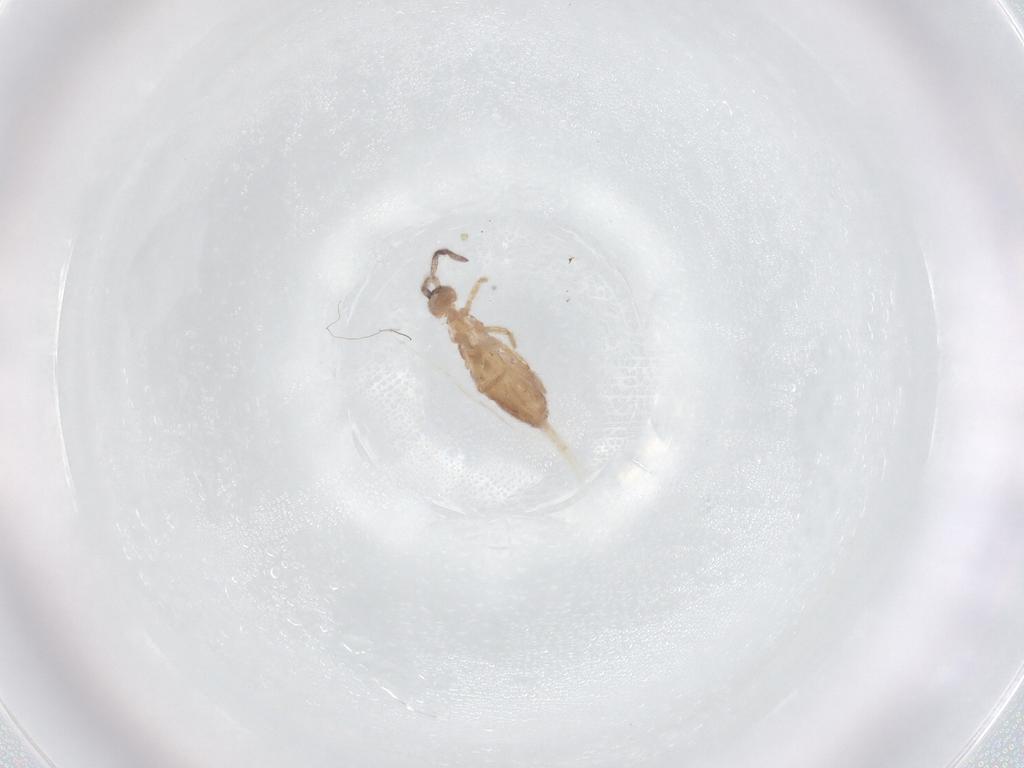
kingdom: Animalia
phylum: Arthropoda
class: Collembola
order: Entomobryomorpha
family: Entomobryidae
